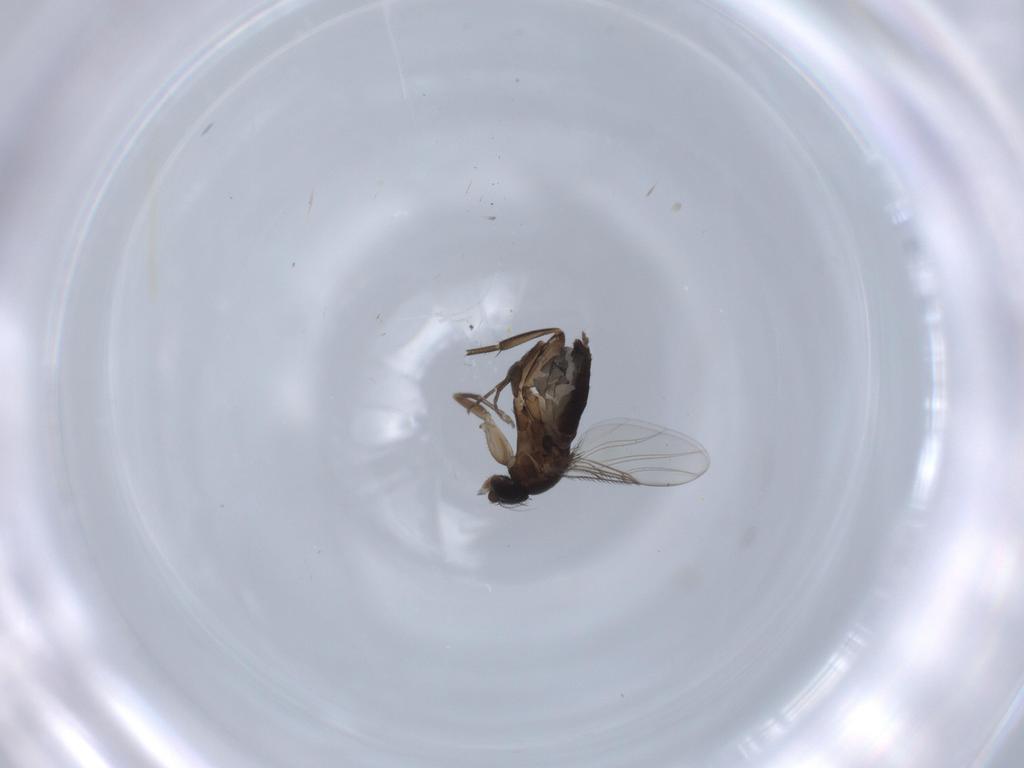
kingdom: Animalia
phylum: Arthropoda
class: Insecta
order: Diptera
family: Phoridae
